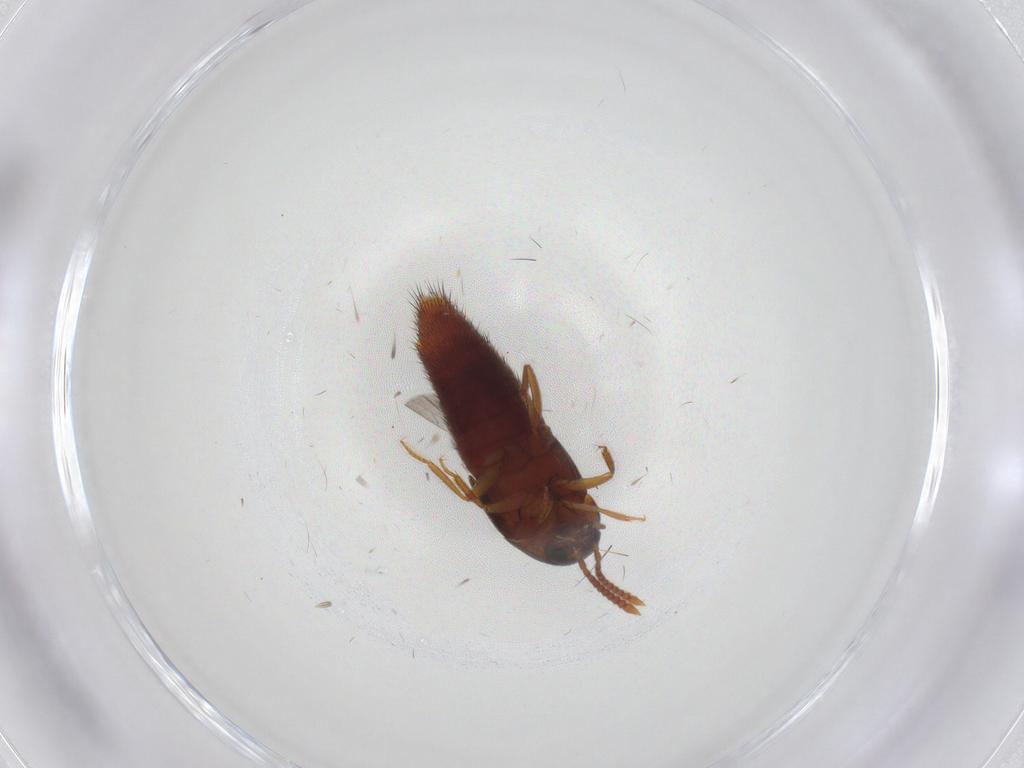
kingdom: Animalia
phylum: Arthropoda
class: Insecta
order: Coleoptera
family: Staphylinidae
